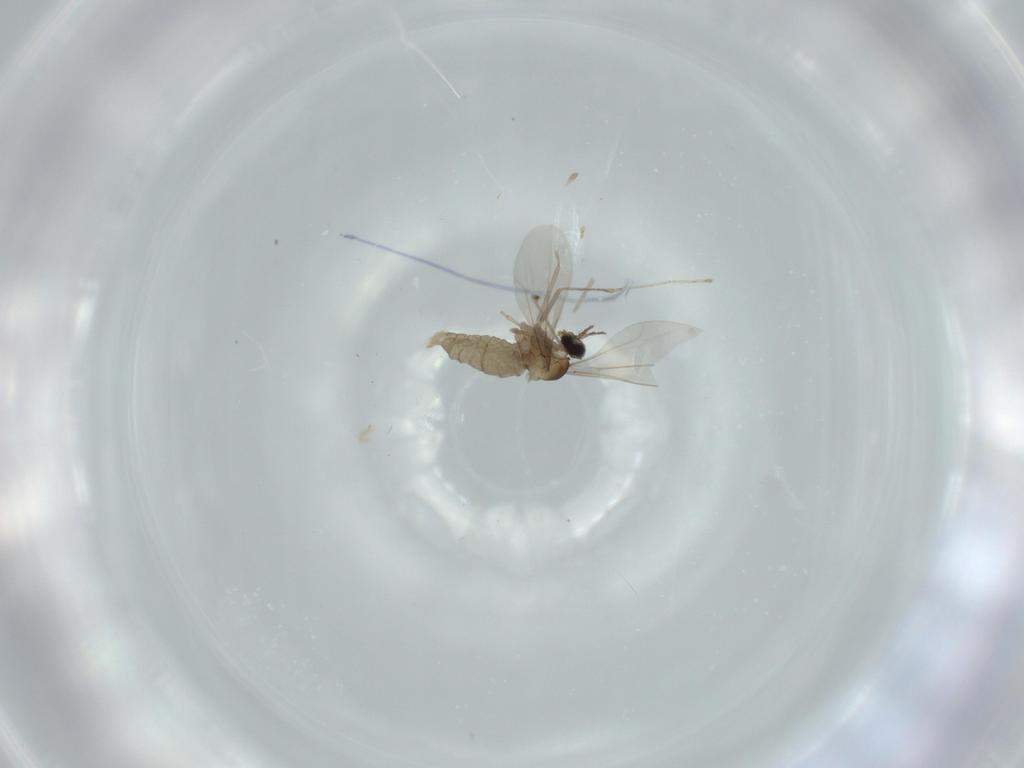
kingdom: Animalia
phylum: Arthropoda
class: Insecta
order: Diptera
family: Cecidomyiidae
